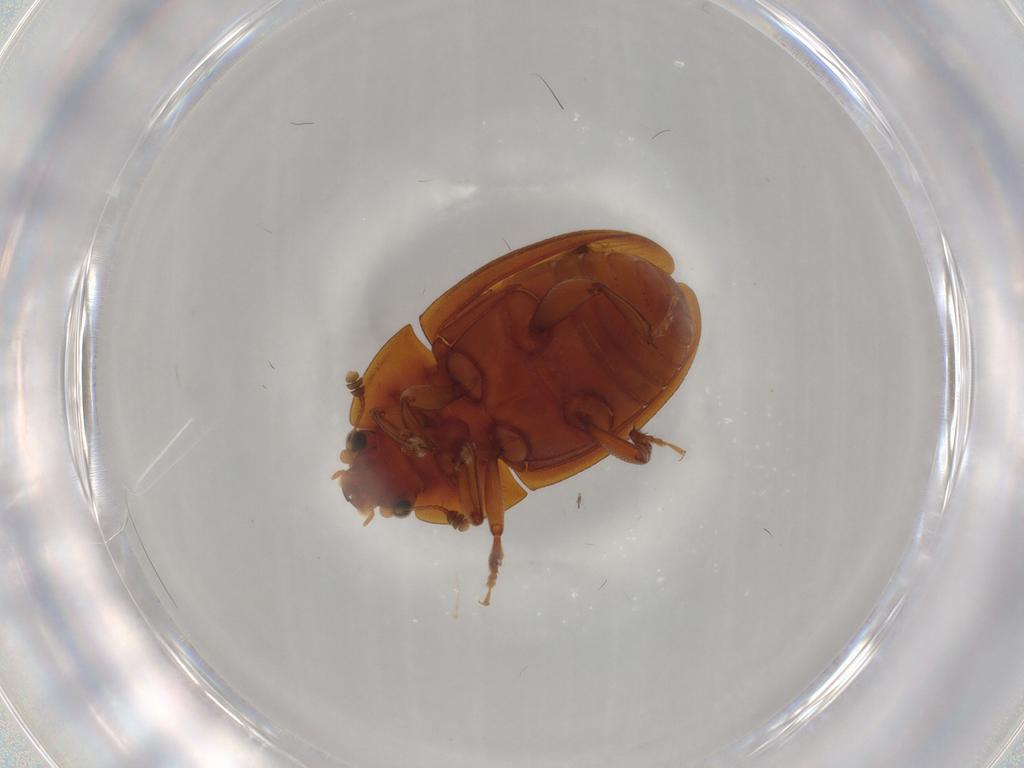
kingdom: Animalia
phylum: Arthropoda
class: Insecta
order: Coleoptera
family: Nitidulidae
